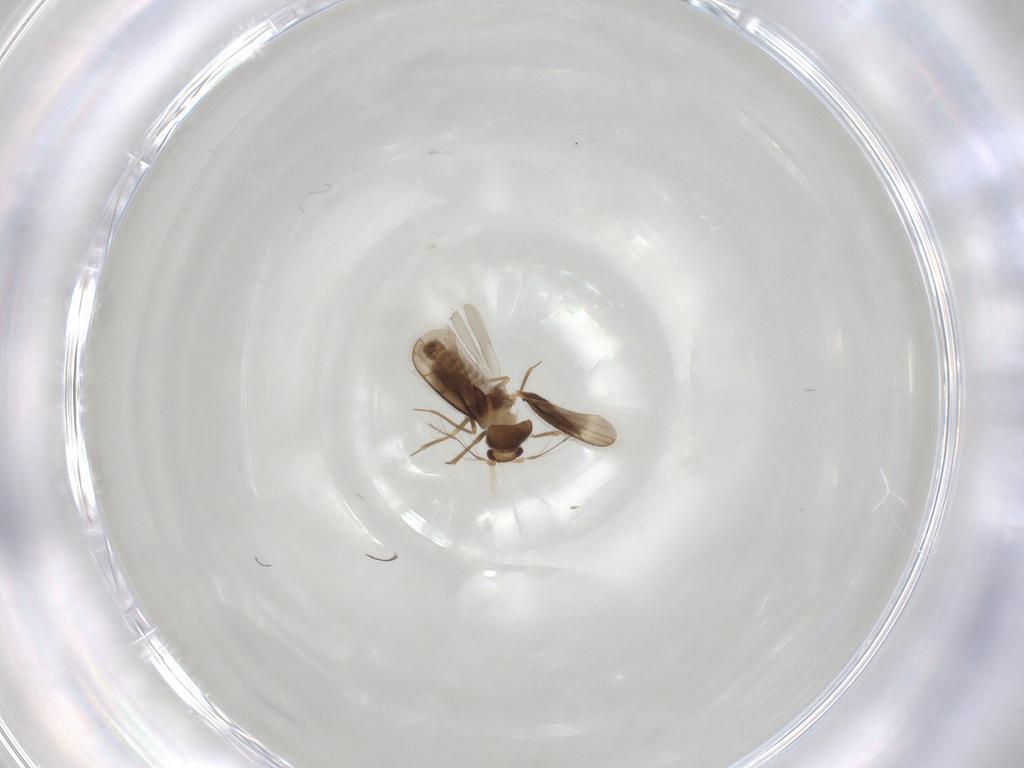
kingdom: Animalia
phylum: Arthropoda
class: Insecta
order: Hemiptera
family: Schizopteridae
